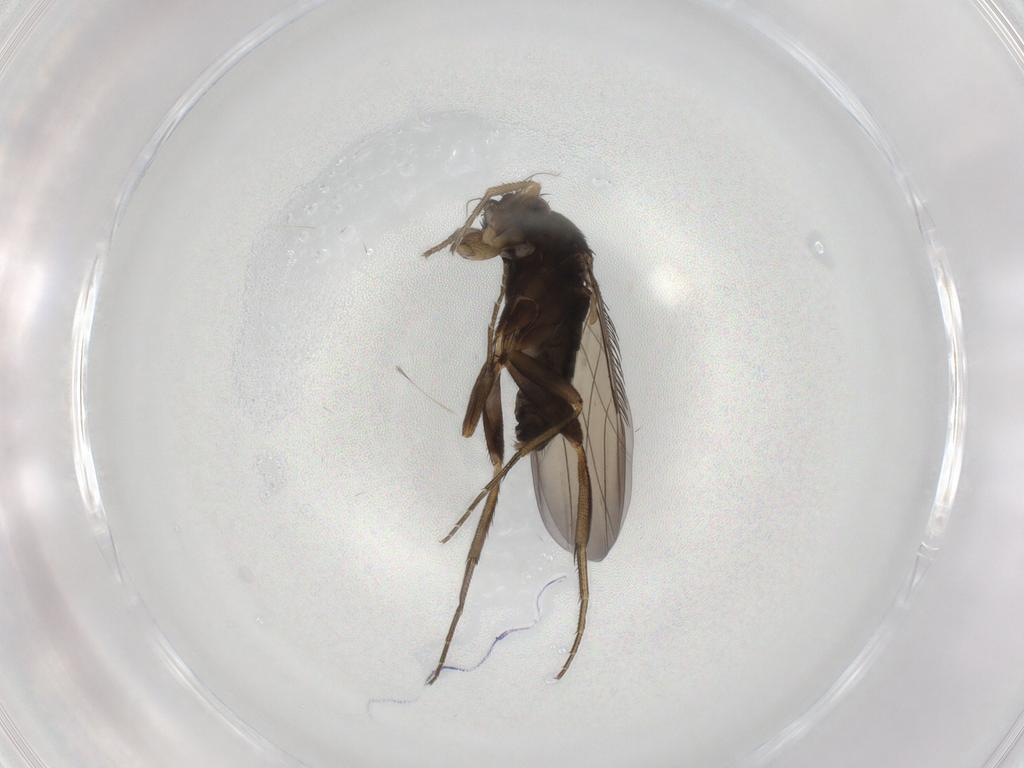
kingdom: Animalia
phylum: Arthropoda
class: Insecta
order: Diptera
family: Phoridae
